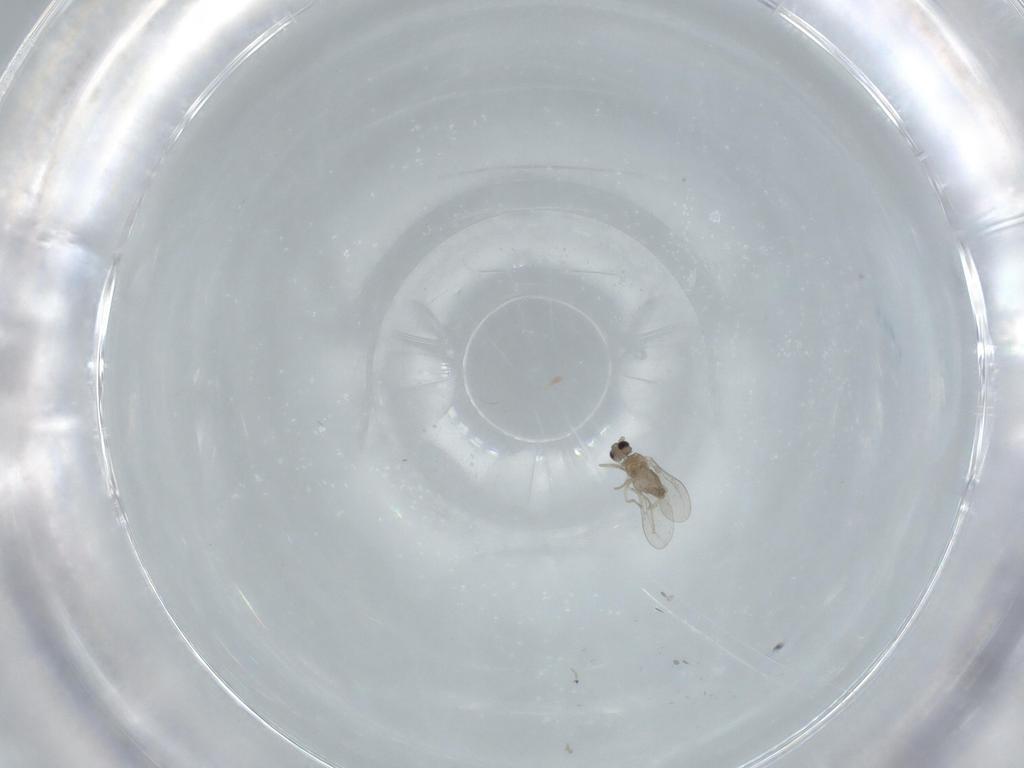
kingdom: Animalia
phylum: Arthropoda
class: Insecta
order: Diptera
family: Cecidomyiidae
